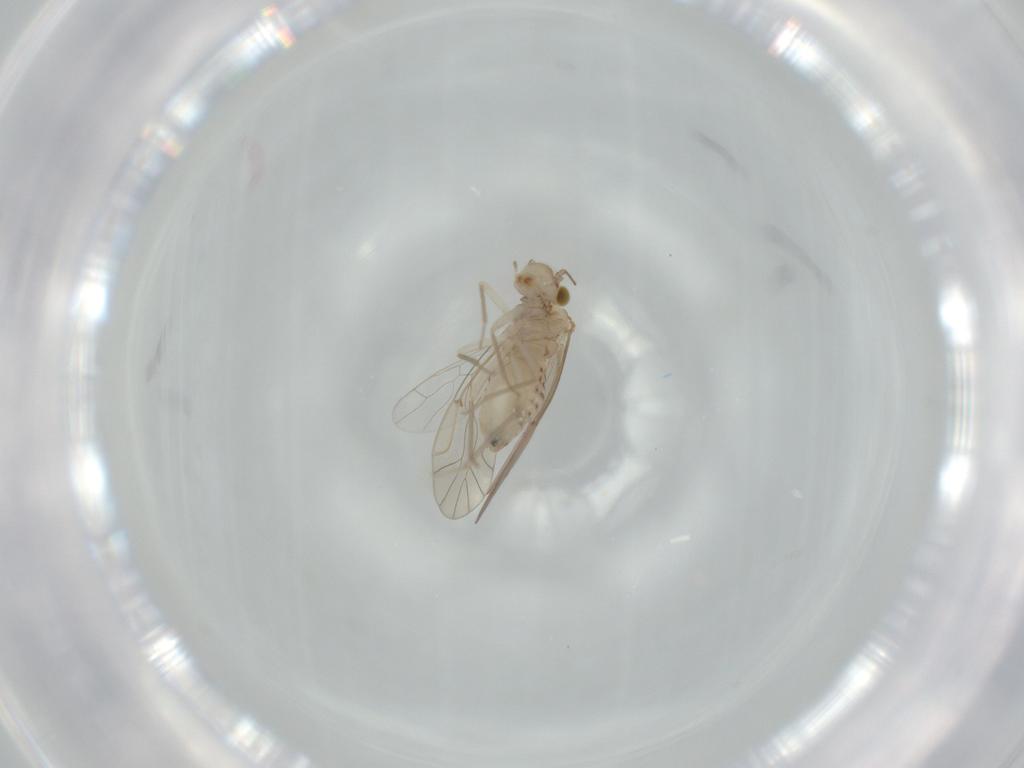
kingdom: Animalia
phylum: Arthropoda
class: Insecta
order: Psocodea
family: Lachesillidae
